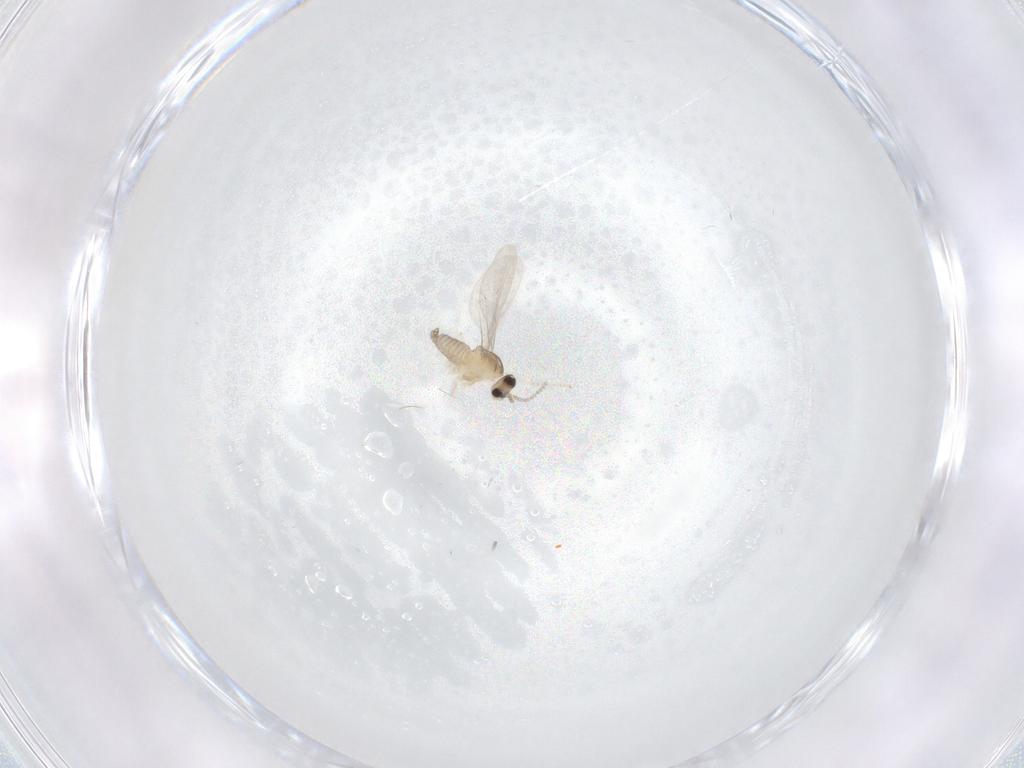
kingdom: Animalia
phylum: Arthropoda
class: Insecta
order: Diptera
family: Cecidomyiidae
